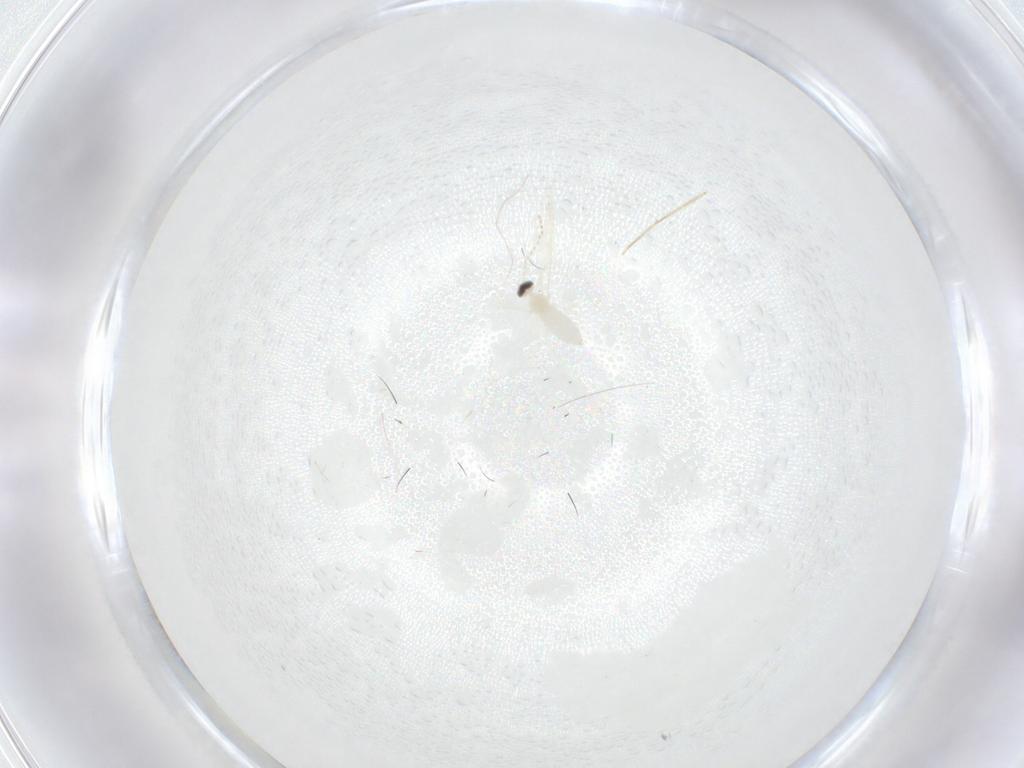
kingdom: Animalia
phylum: Arthropoda
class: Insecta
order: Diptera
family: Cecidomyiidae
